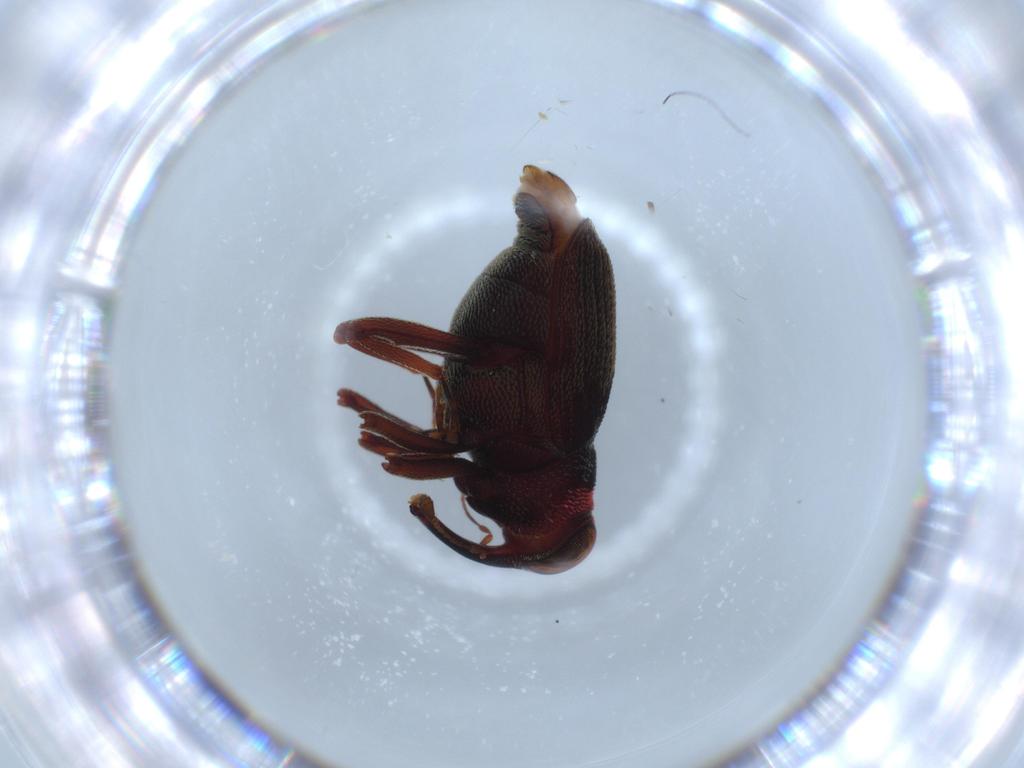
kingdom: Animalia
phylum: Arthropoda
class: Insecta
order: Coleoptera
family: Curculionidae
